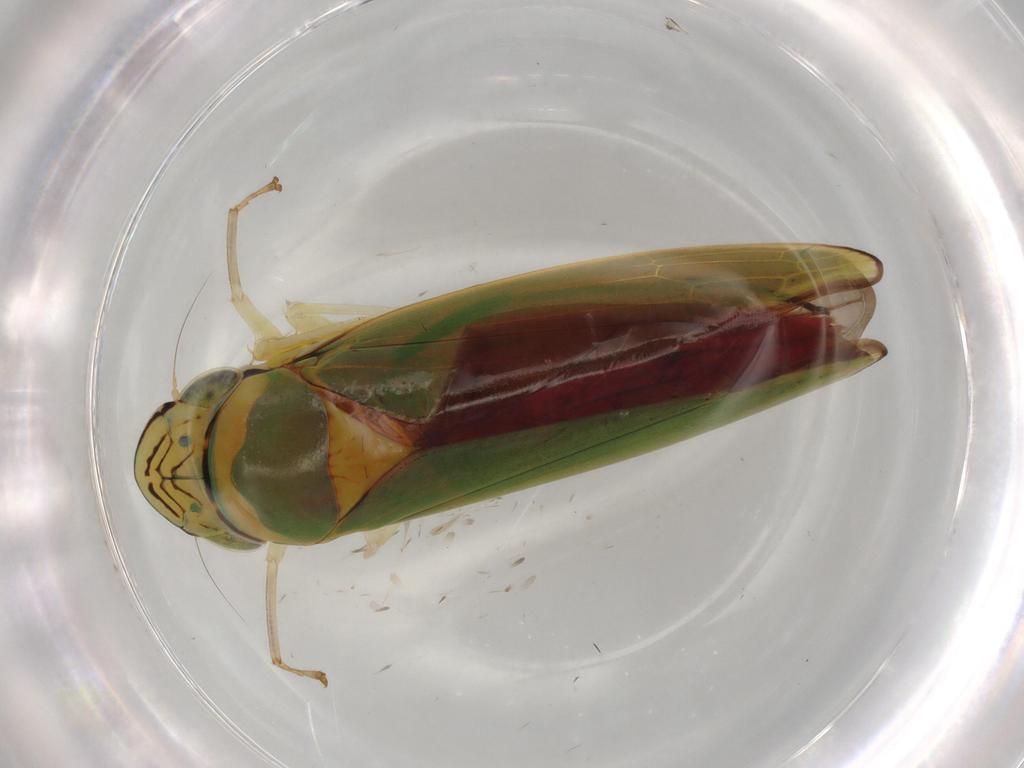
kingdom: Animalia
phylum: Arthropoda
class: Insecta
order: Hemiptera
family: Cicadellidae
